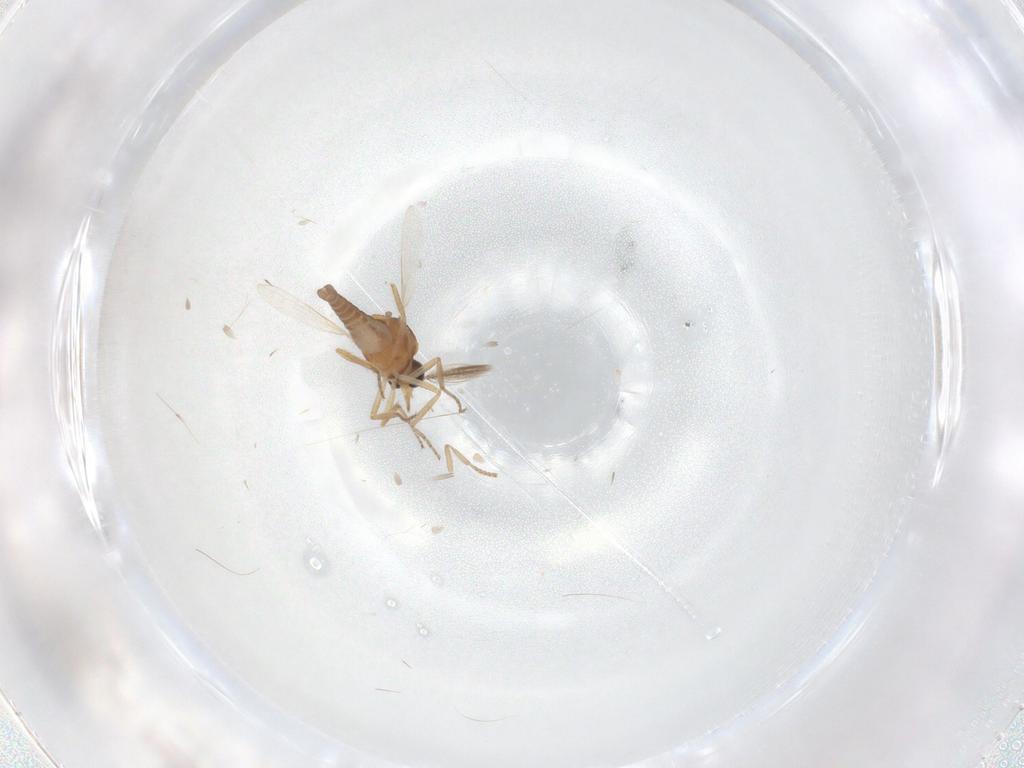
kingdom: Animalia
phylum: Arthropoda
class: Insecta
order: Diptera
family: Ceratopogonidae
